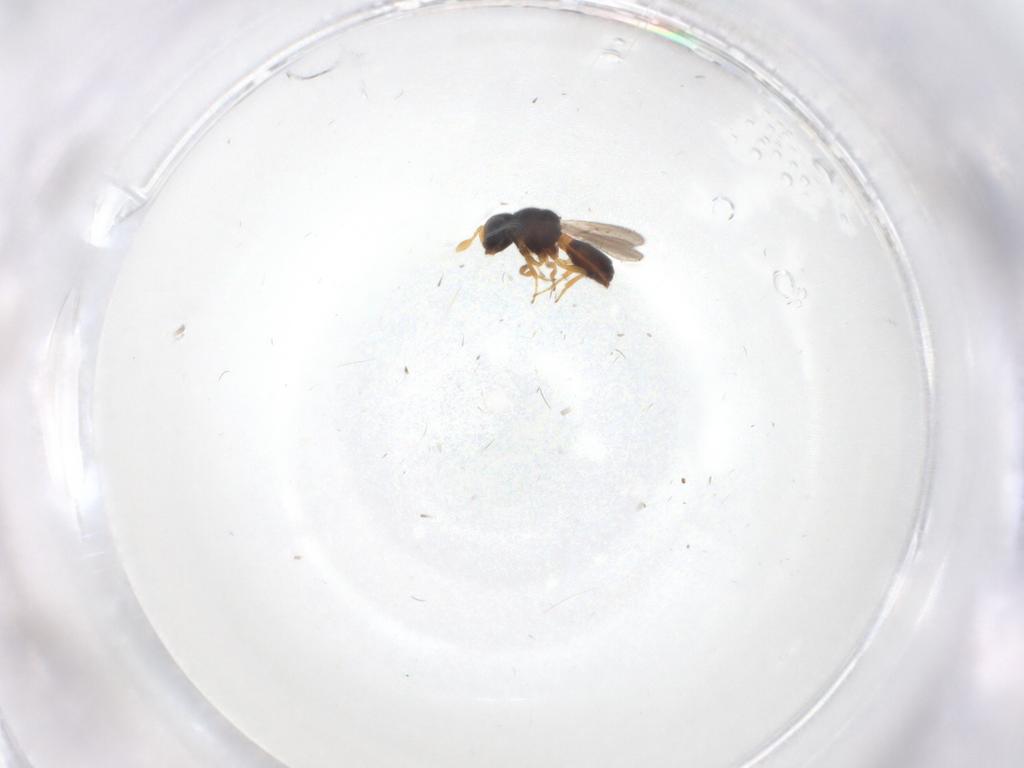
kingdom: Animalia
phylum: Arthropoda
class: Insecta
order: Hymenoptera
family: Scelionidae
